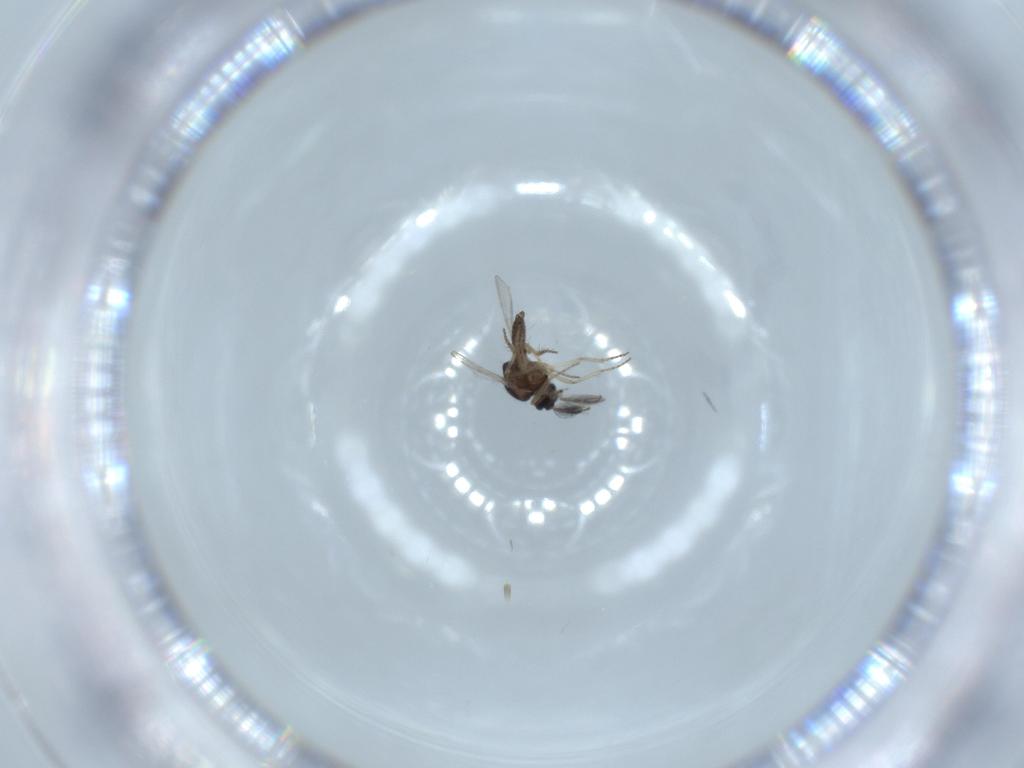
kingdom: Animalia
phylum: Arthropoda
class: Insecta
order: Diptera
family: Ceratopogonidae
